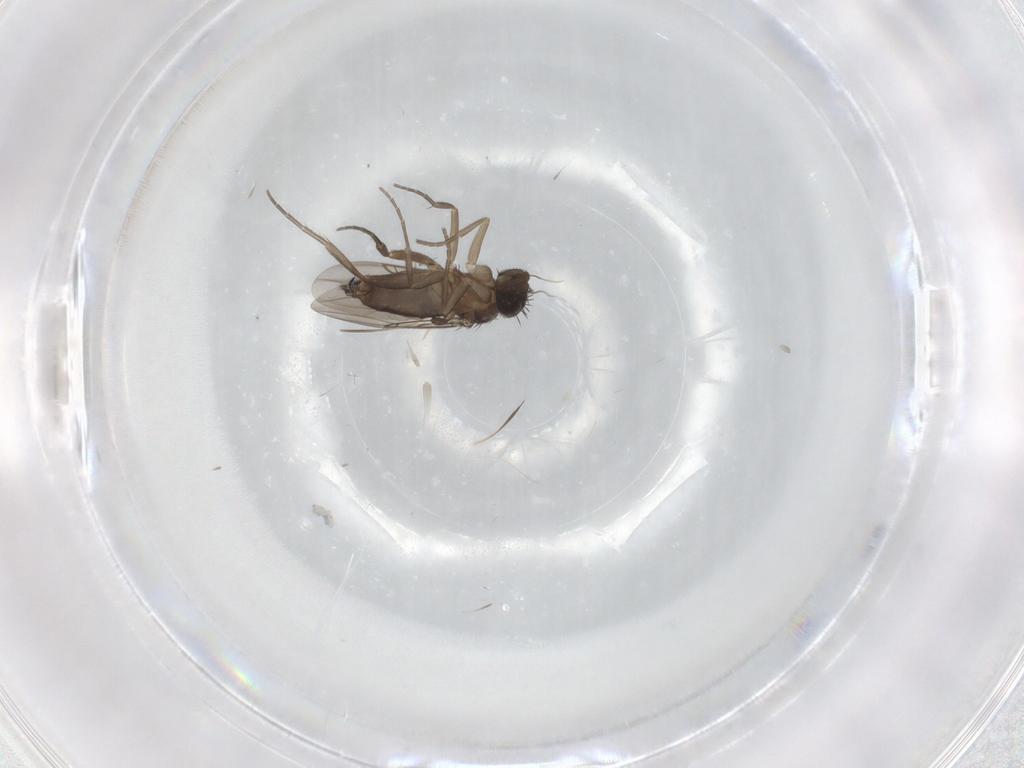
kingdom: Animalia
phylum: Arthropoda
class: Insecta
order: Diptera
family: Phoridae
